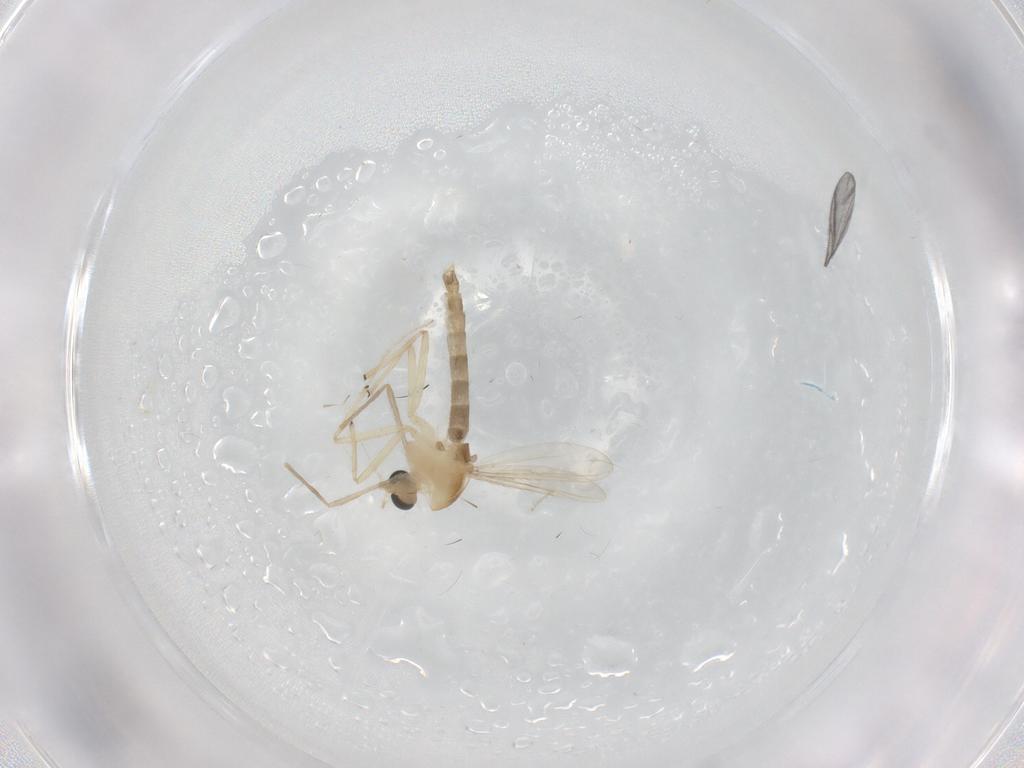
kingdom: Animalia
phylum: Arthropoda
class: Insecta
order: Diptera
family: Chironomidae
